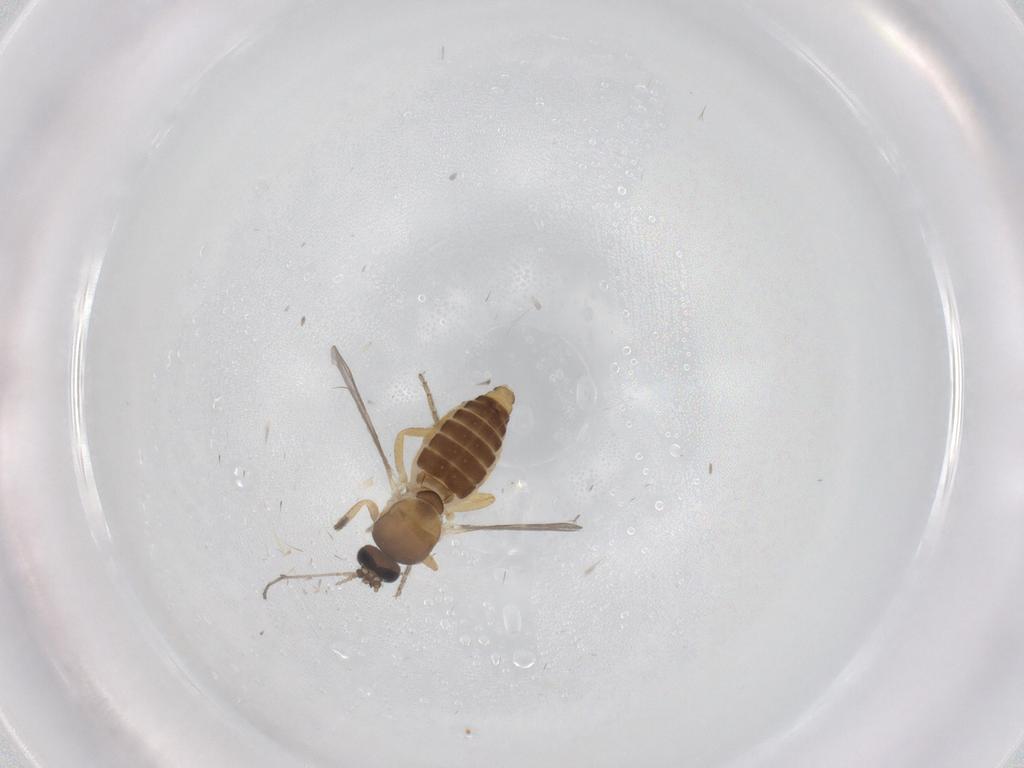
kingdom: Animalia
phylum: Arthropoda
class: Insecta
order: Diptera
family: Ceratopogonidae
